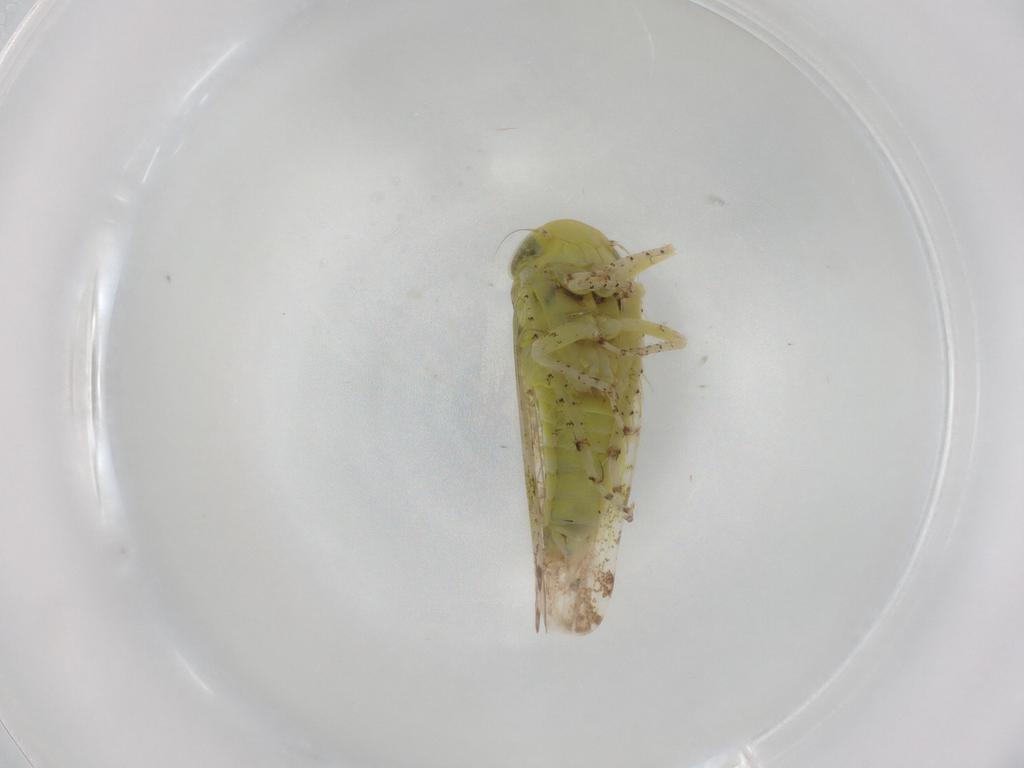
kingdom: Animalia
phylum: Arthropoda
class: Insecta
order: Hemiptera
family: Cicadellidae
